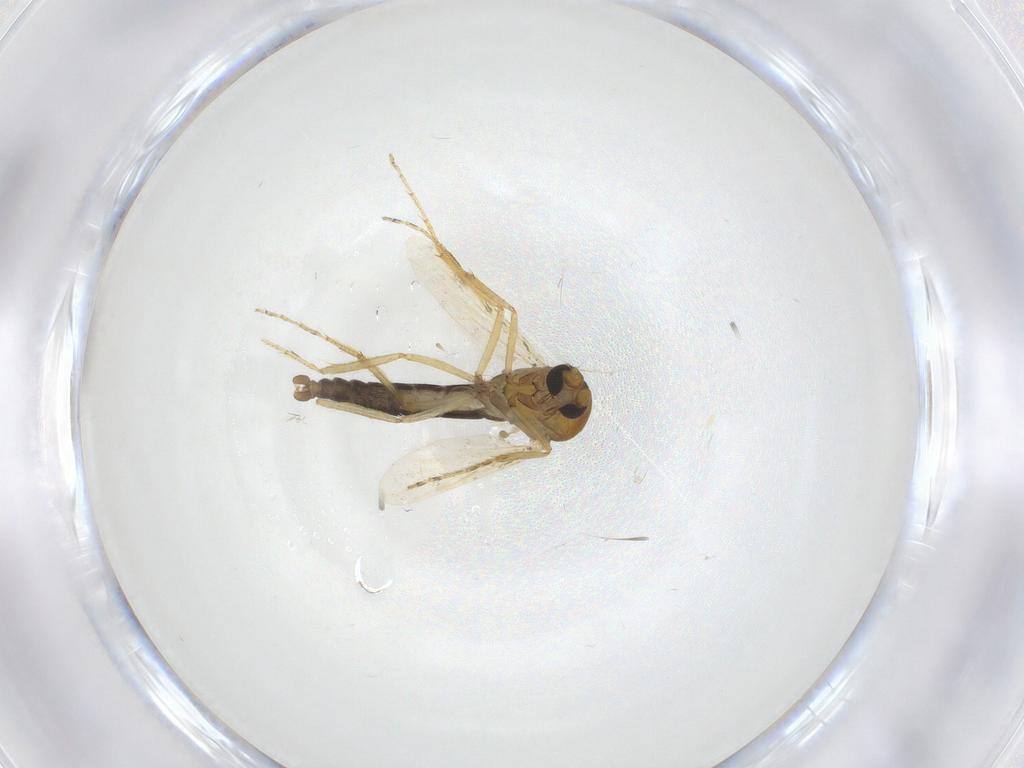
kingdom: Animalia
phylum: Arthropoda
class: Insecta
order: Diptera
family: Ceratopogonidae
